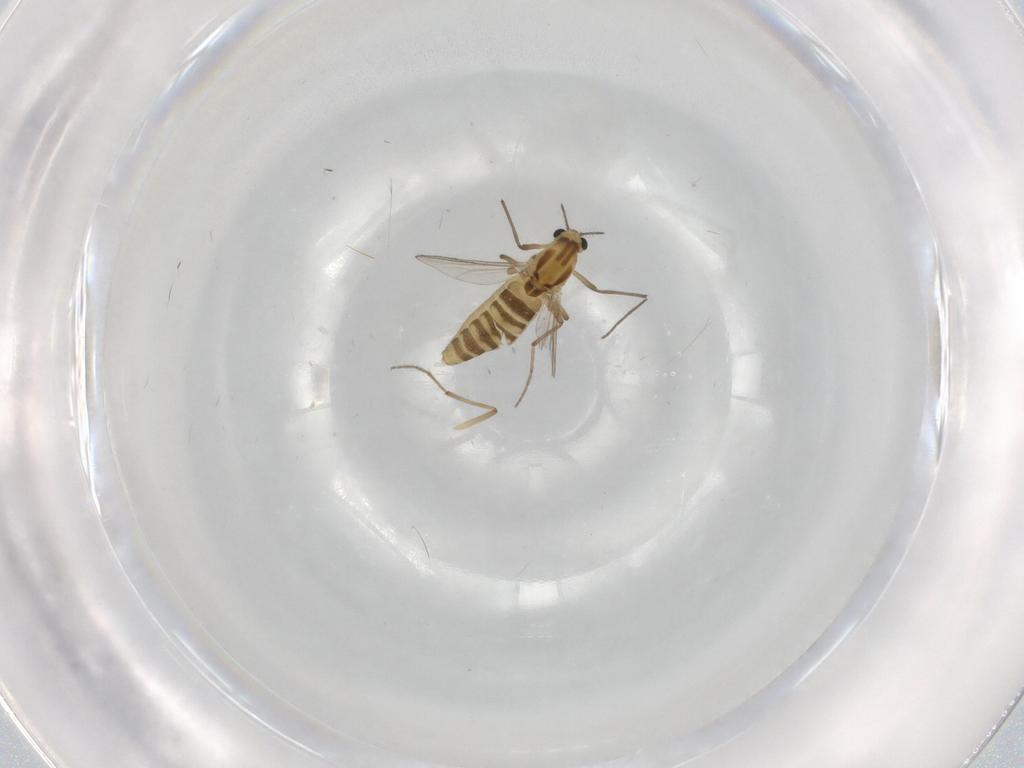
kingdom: Animalia
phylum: Arthropoda
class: Insecta
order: Diptera
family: Chironomidae
